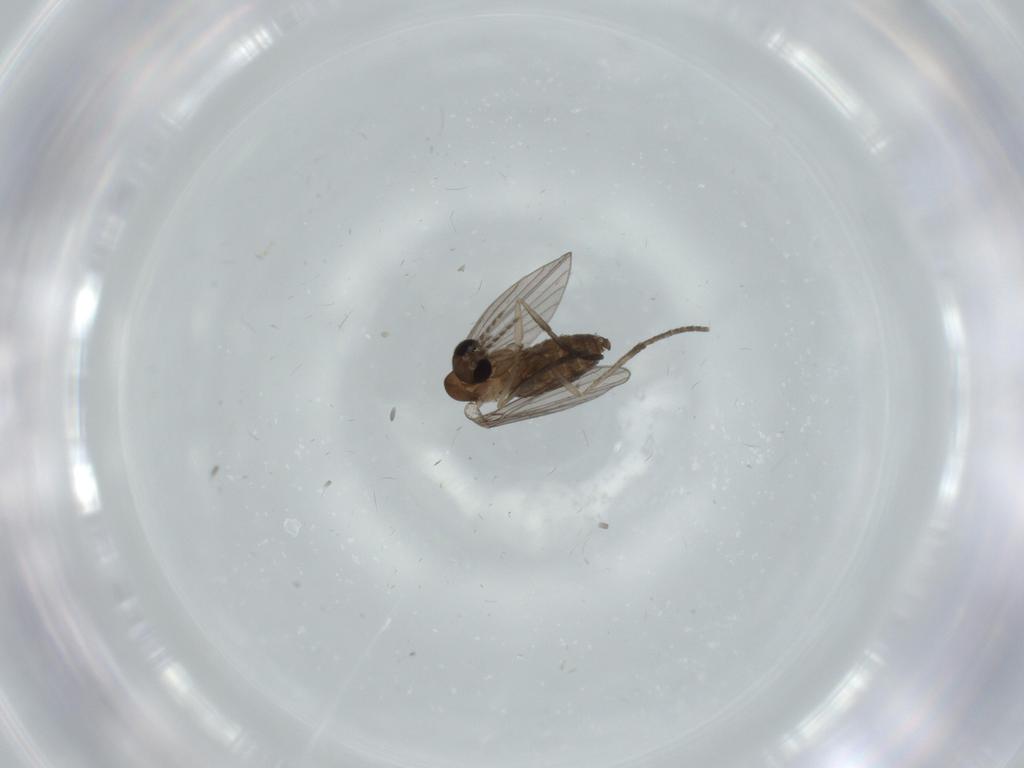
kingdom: Animalia
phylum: Arthropoda
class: Insecta
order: Diptera
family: Psychodidae
